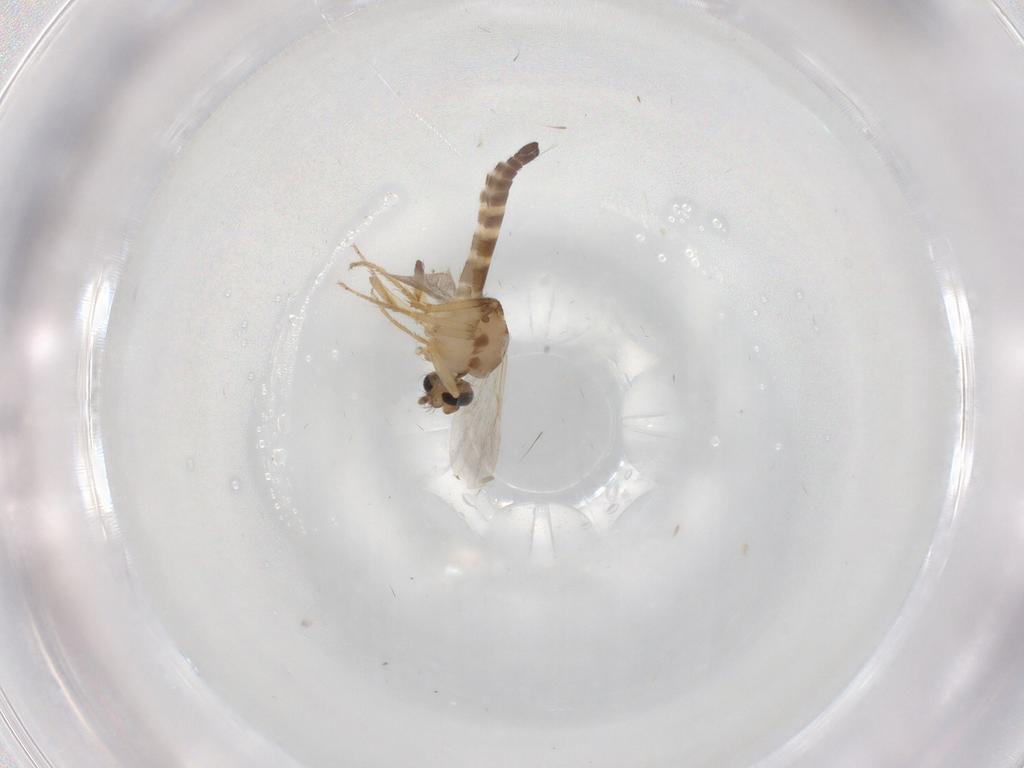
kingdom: Animalia
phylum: Arthropoda
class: Insecta
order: Diptera
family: Ceratopogonidae
